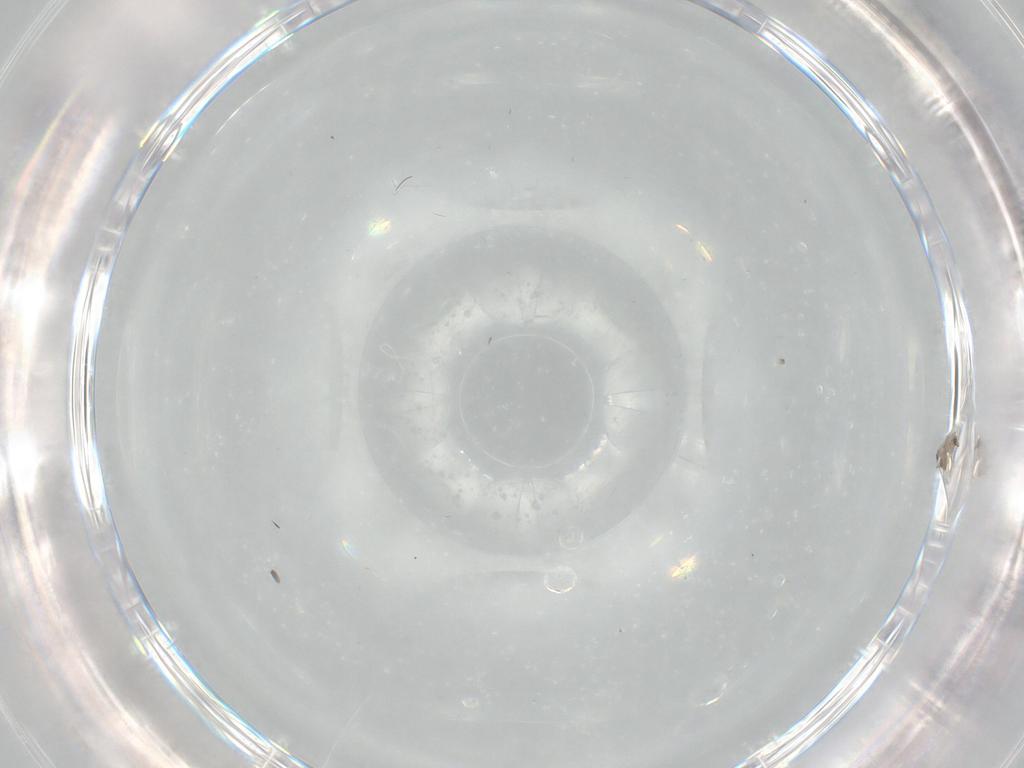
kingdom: Animalia
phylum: Arthropoda
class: Insecta
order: Diptera
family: Cecidomyiidae
